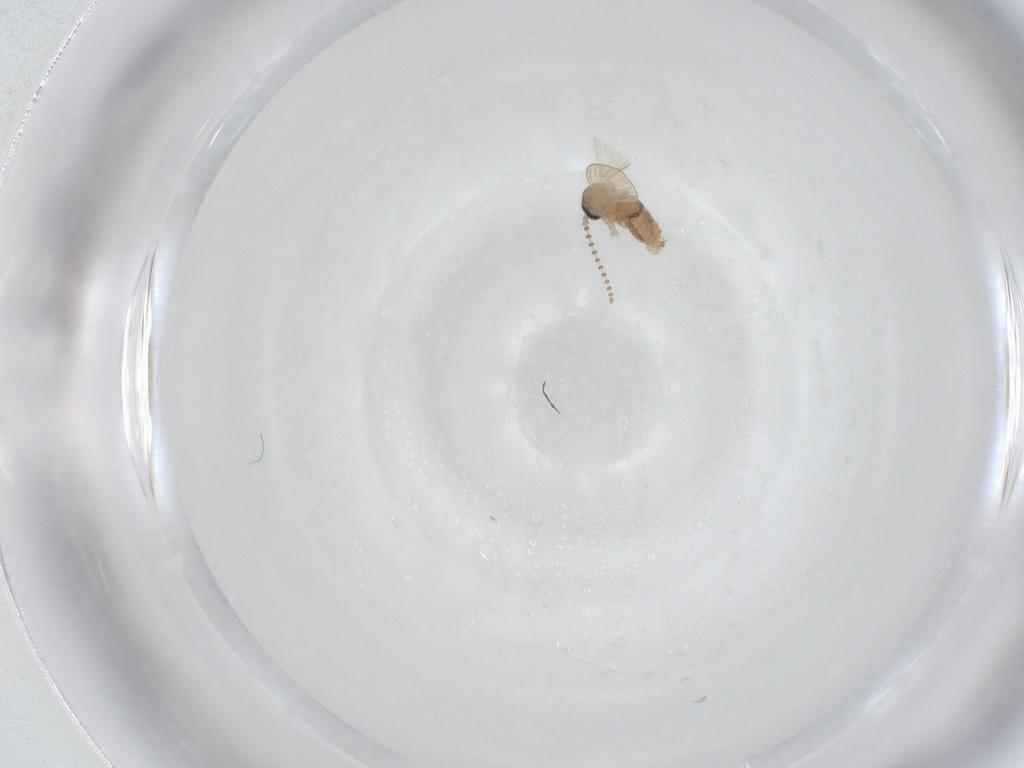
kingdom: Animalia
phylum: Arthropoda
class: Insecta
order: Diptera
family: Psychodidae
